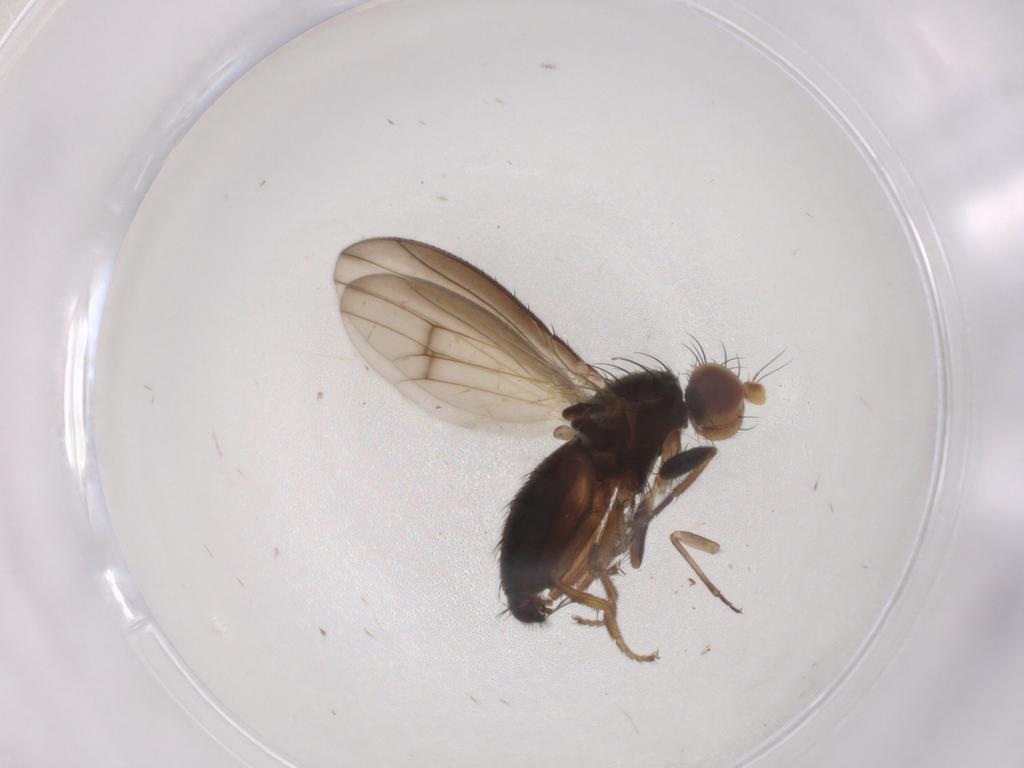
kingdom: Animalia
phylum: Arthropoda
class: Insecta
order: Diptera
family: Heleomyzidae
